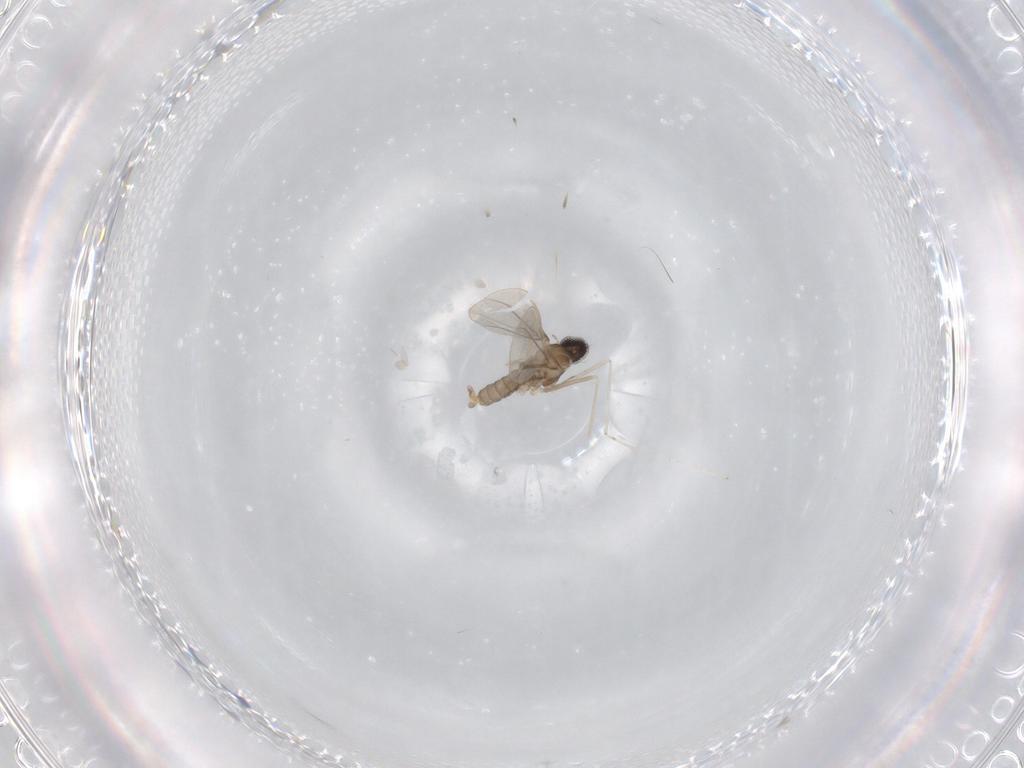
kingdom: Animalia
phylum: Arthropoda
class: Insecta
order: Diptera
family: Cecidomyiidae
